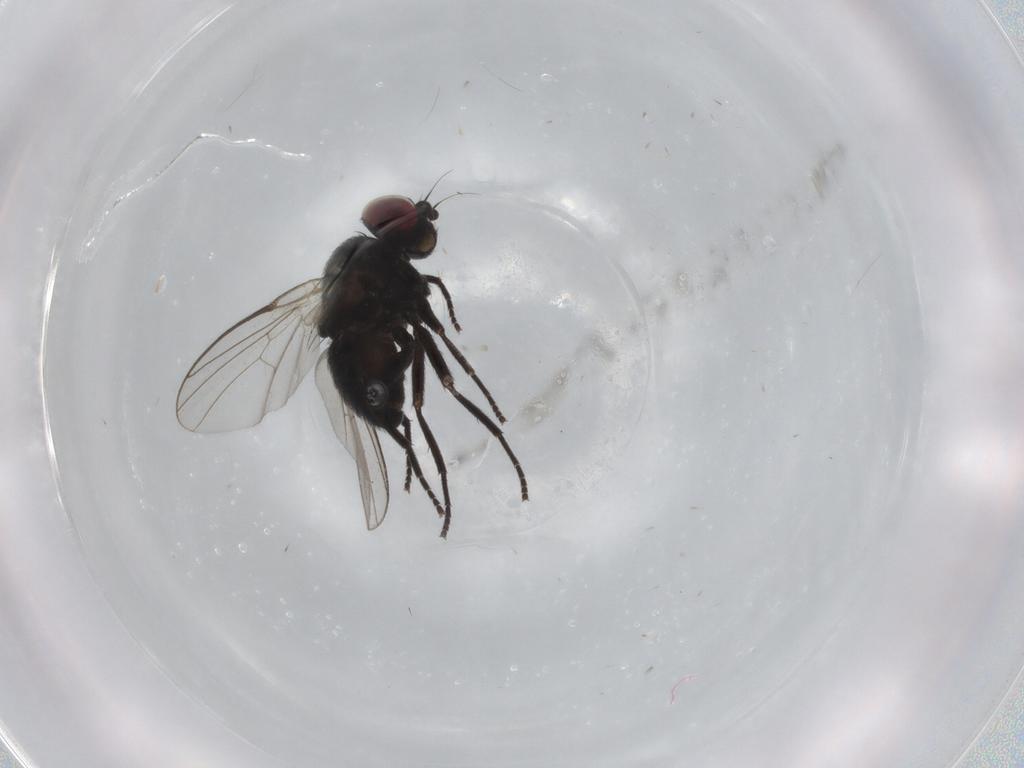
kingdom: Animalia
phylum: Arthropoda
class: Insecta
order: Diptera
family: Agromyzidae
